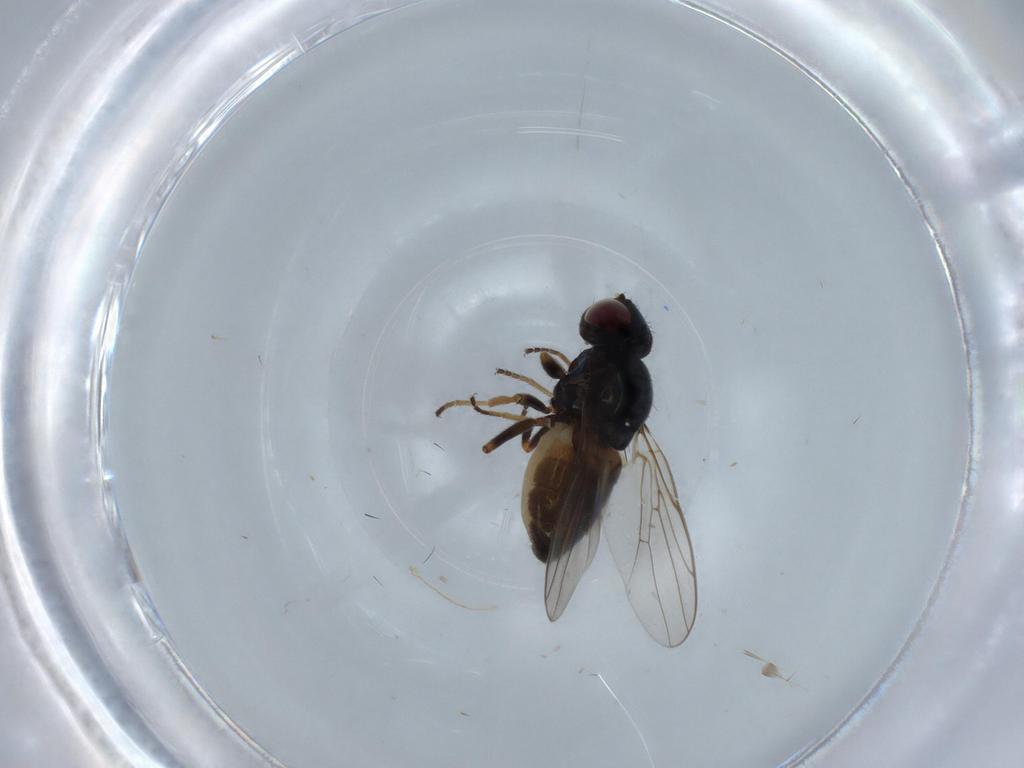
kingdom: Animalia
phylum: Arthropoda
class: Insecta
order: Diptera
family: Chloropidae
